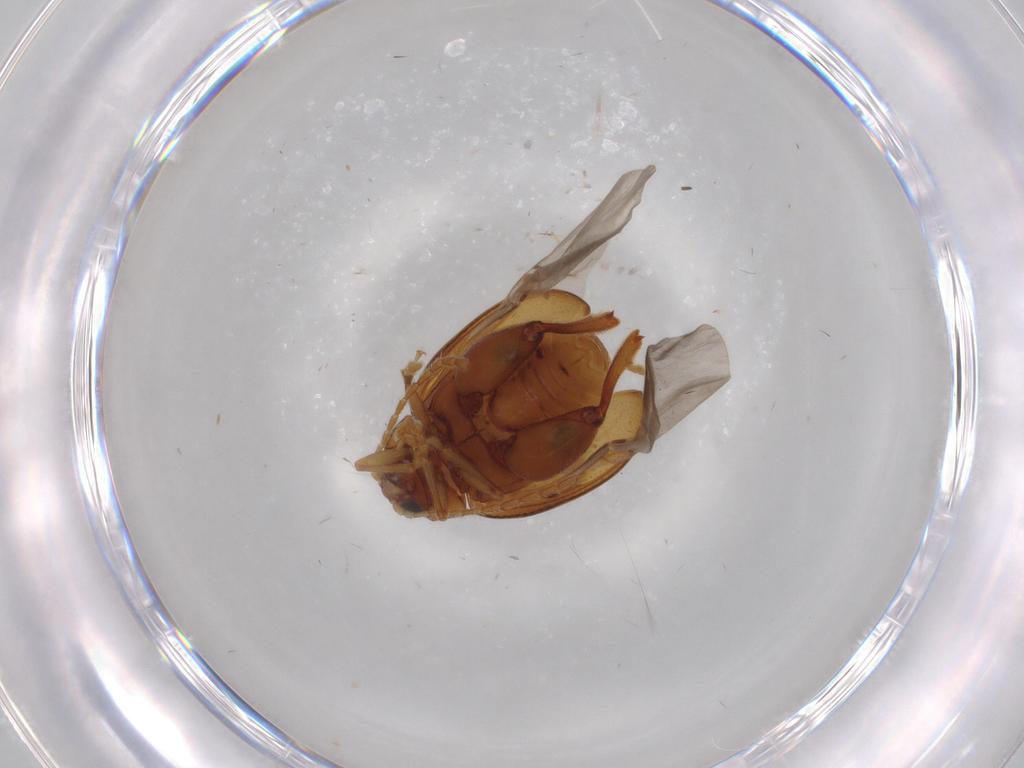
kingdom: Animalia
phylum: Arthropoda
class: Insecta
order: Coleoptera
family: Chrysomelidae
